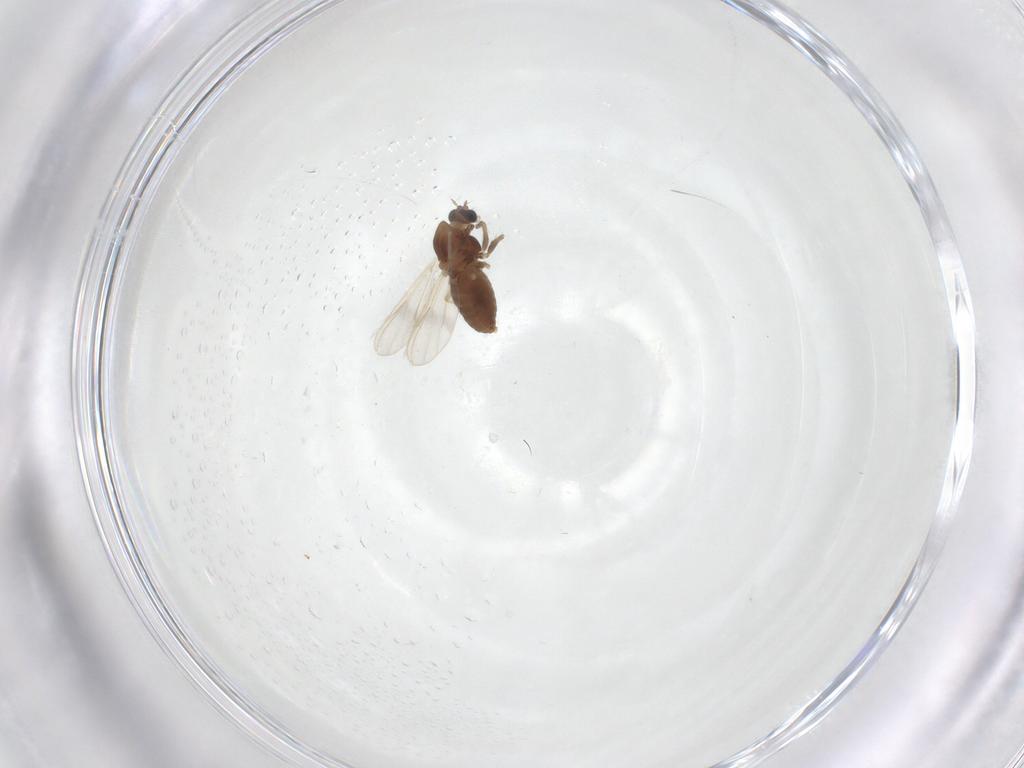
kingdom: Animalia
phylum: Arthropoda
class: Insecta
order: Diptera
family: Chironomidae
